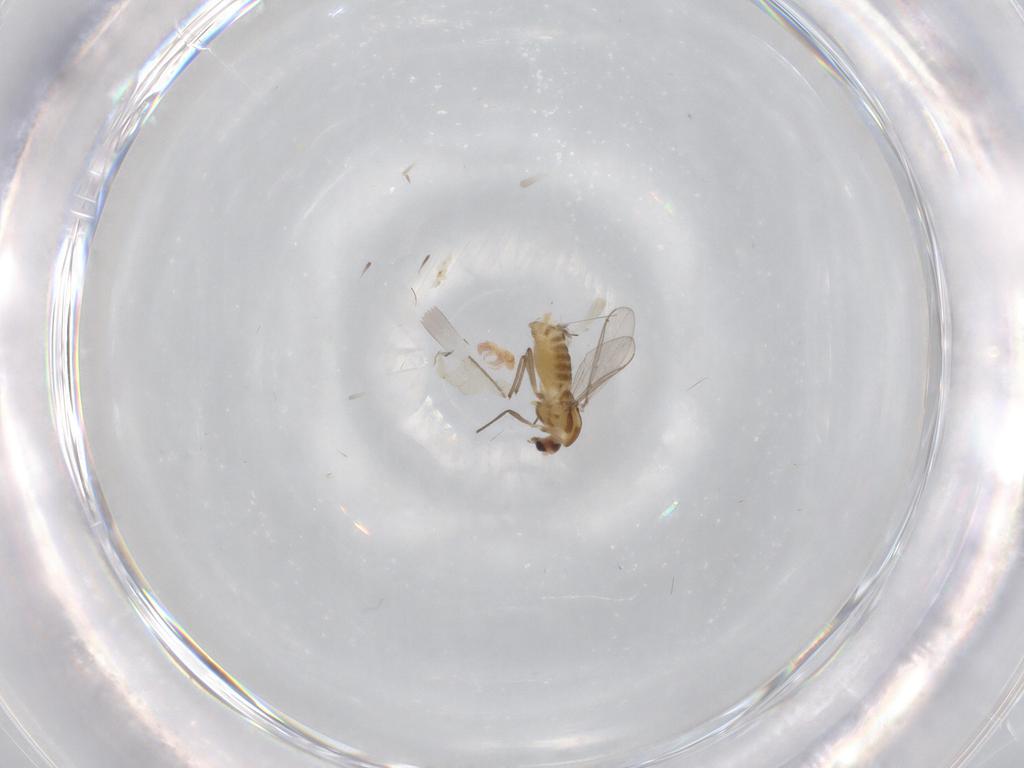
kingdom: Animalia
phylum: Arthropoda
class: Insecta
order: Diptera
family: Chironomidae
